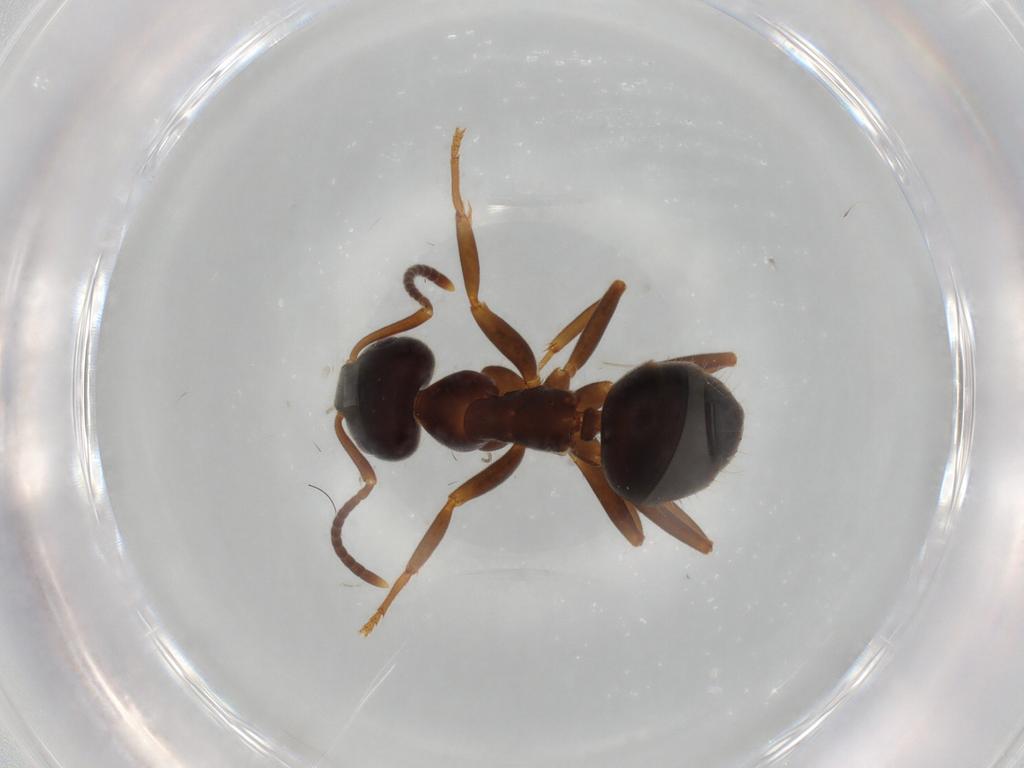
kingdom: Animalia
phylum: Arthropoda
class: Insecta
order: Hymenoptera
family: Formicidae
